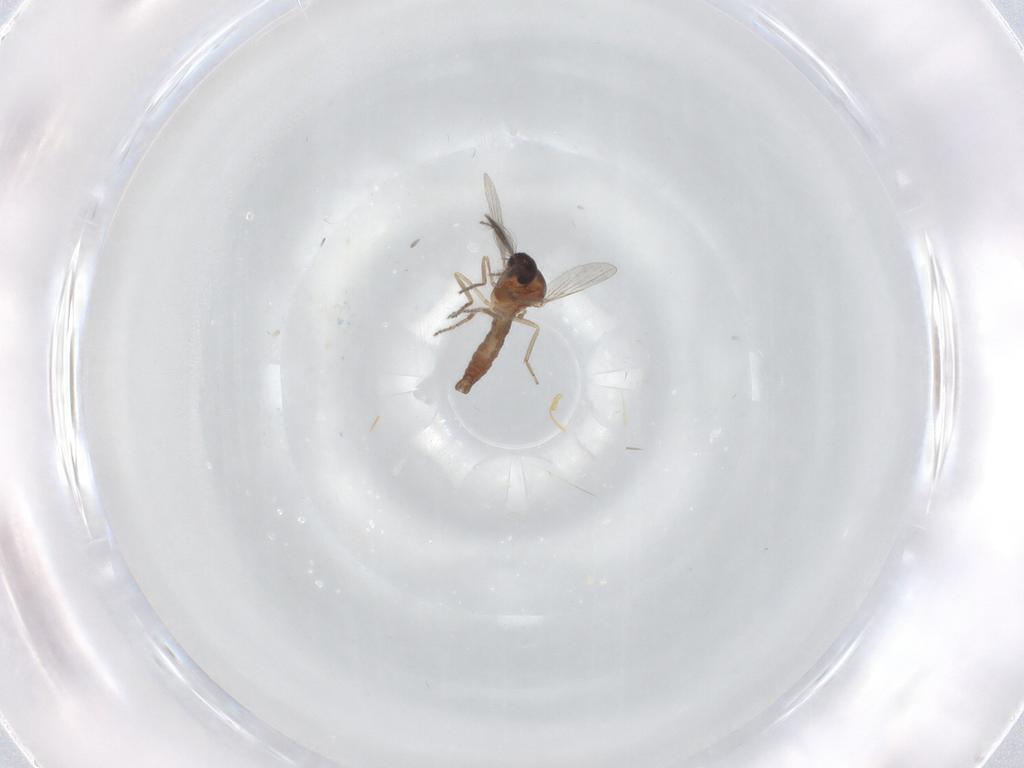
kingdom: Animalia
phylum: Arthropoda
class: Insecta
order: Diptera
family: Ceratopogonidae
